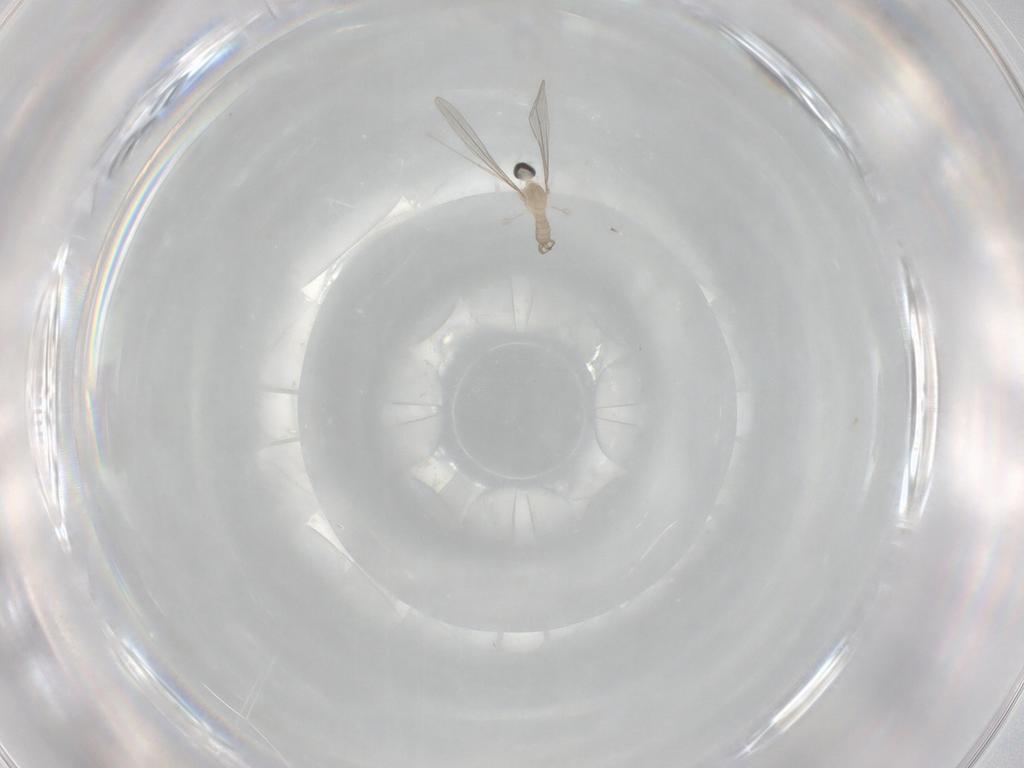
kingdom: Animalia
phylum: Arthropoda
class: Insecta
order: Diptera
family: Cecidomyiidae
